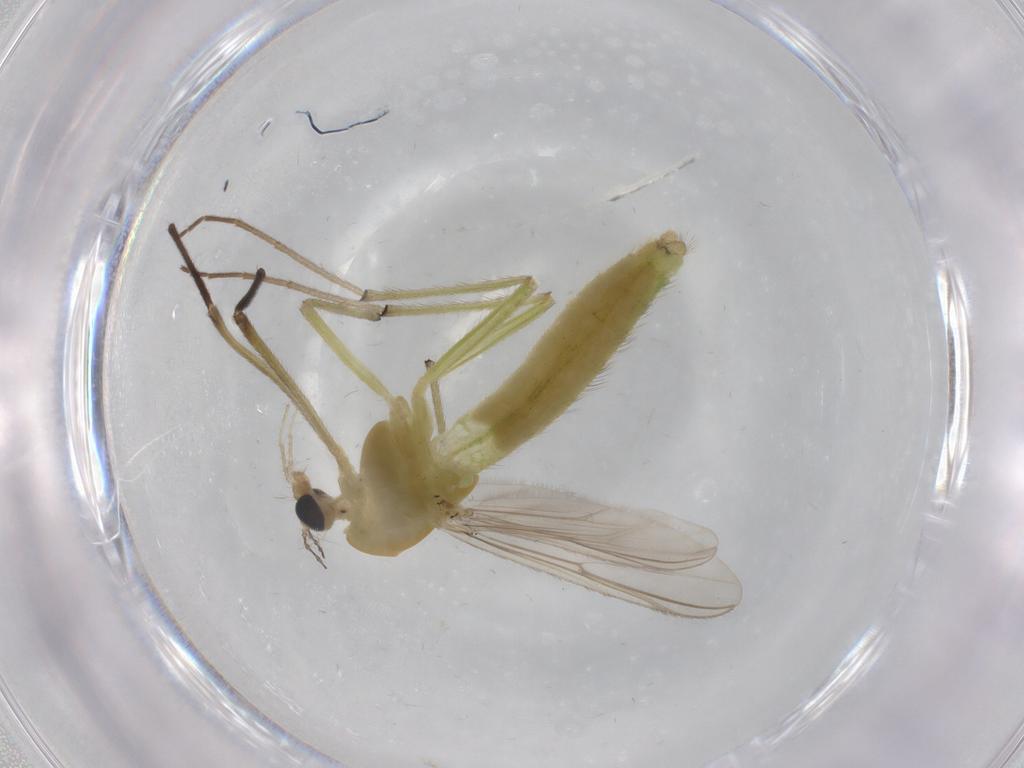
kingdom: Animalia
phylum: Arthropoda
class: Insecta
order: Diptera
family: Chironomidae
